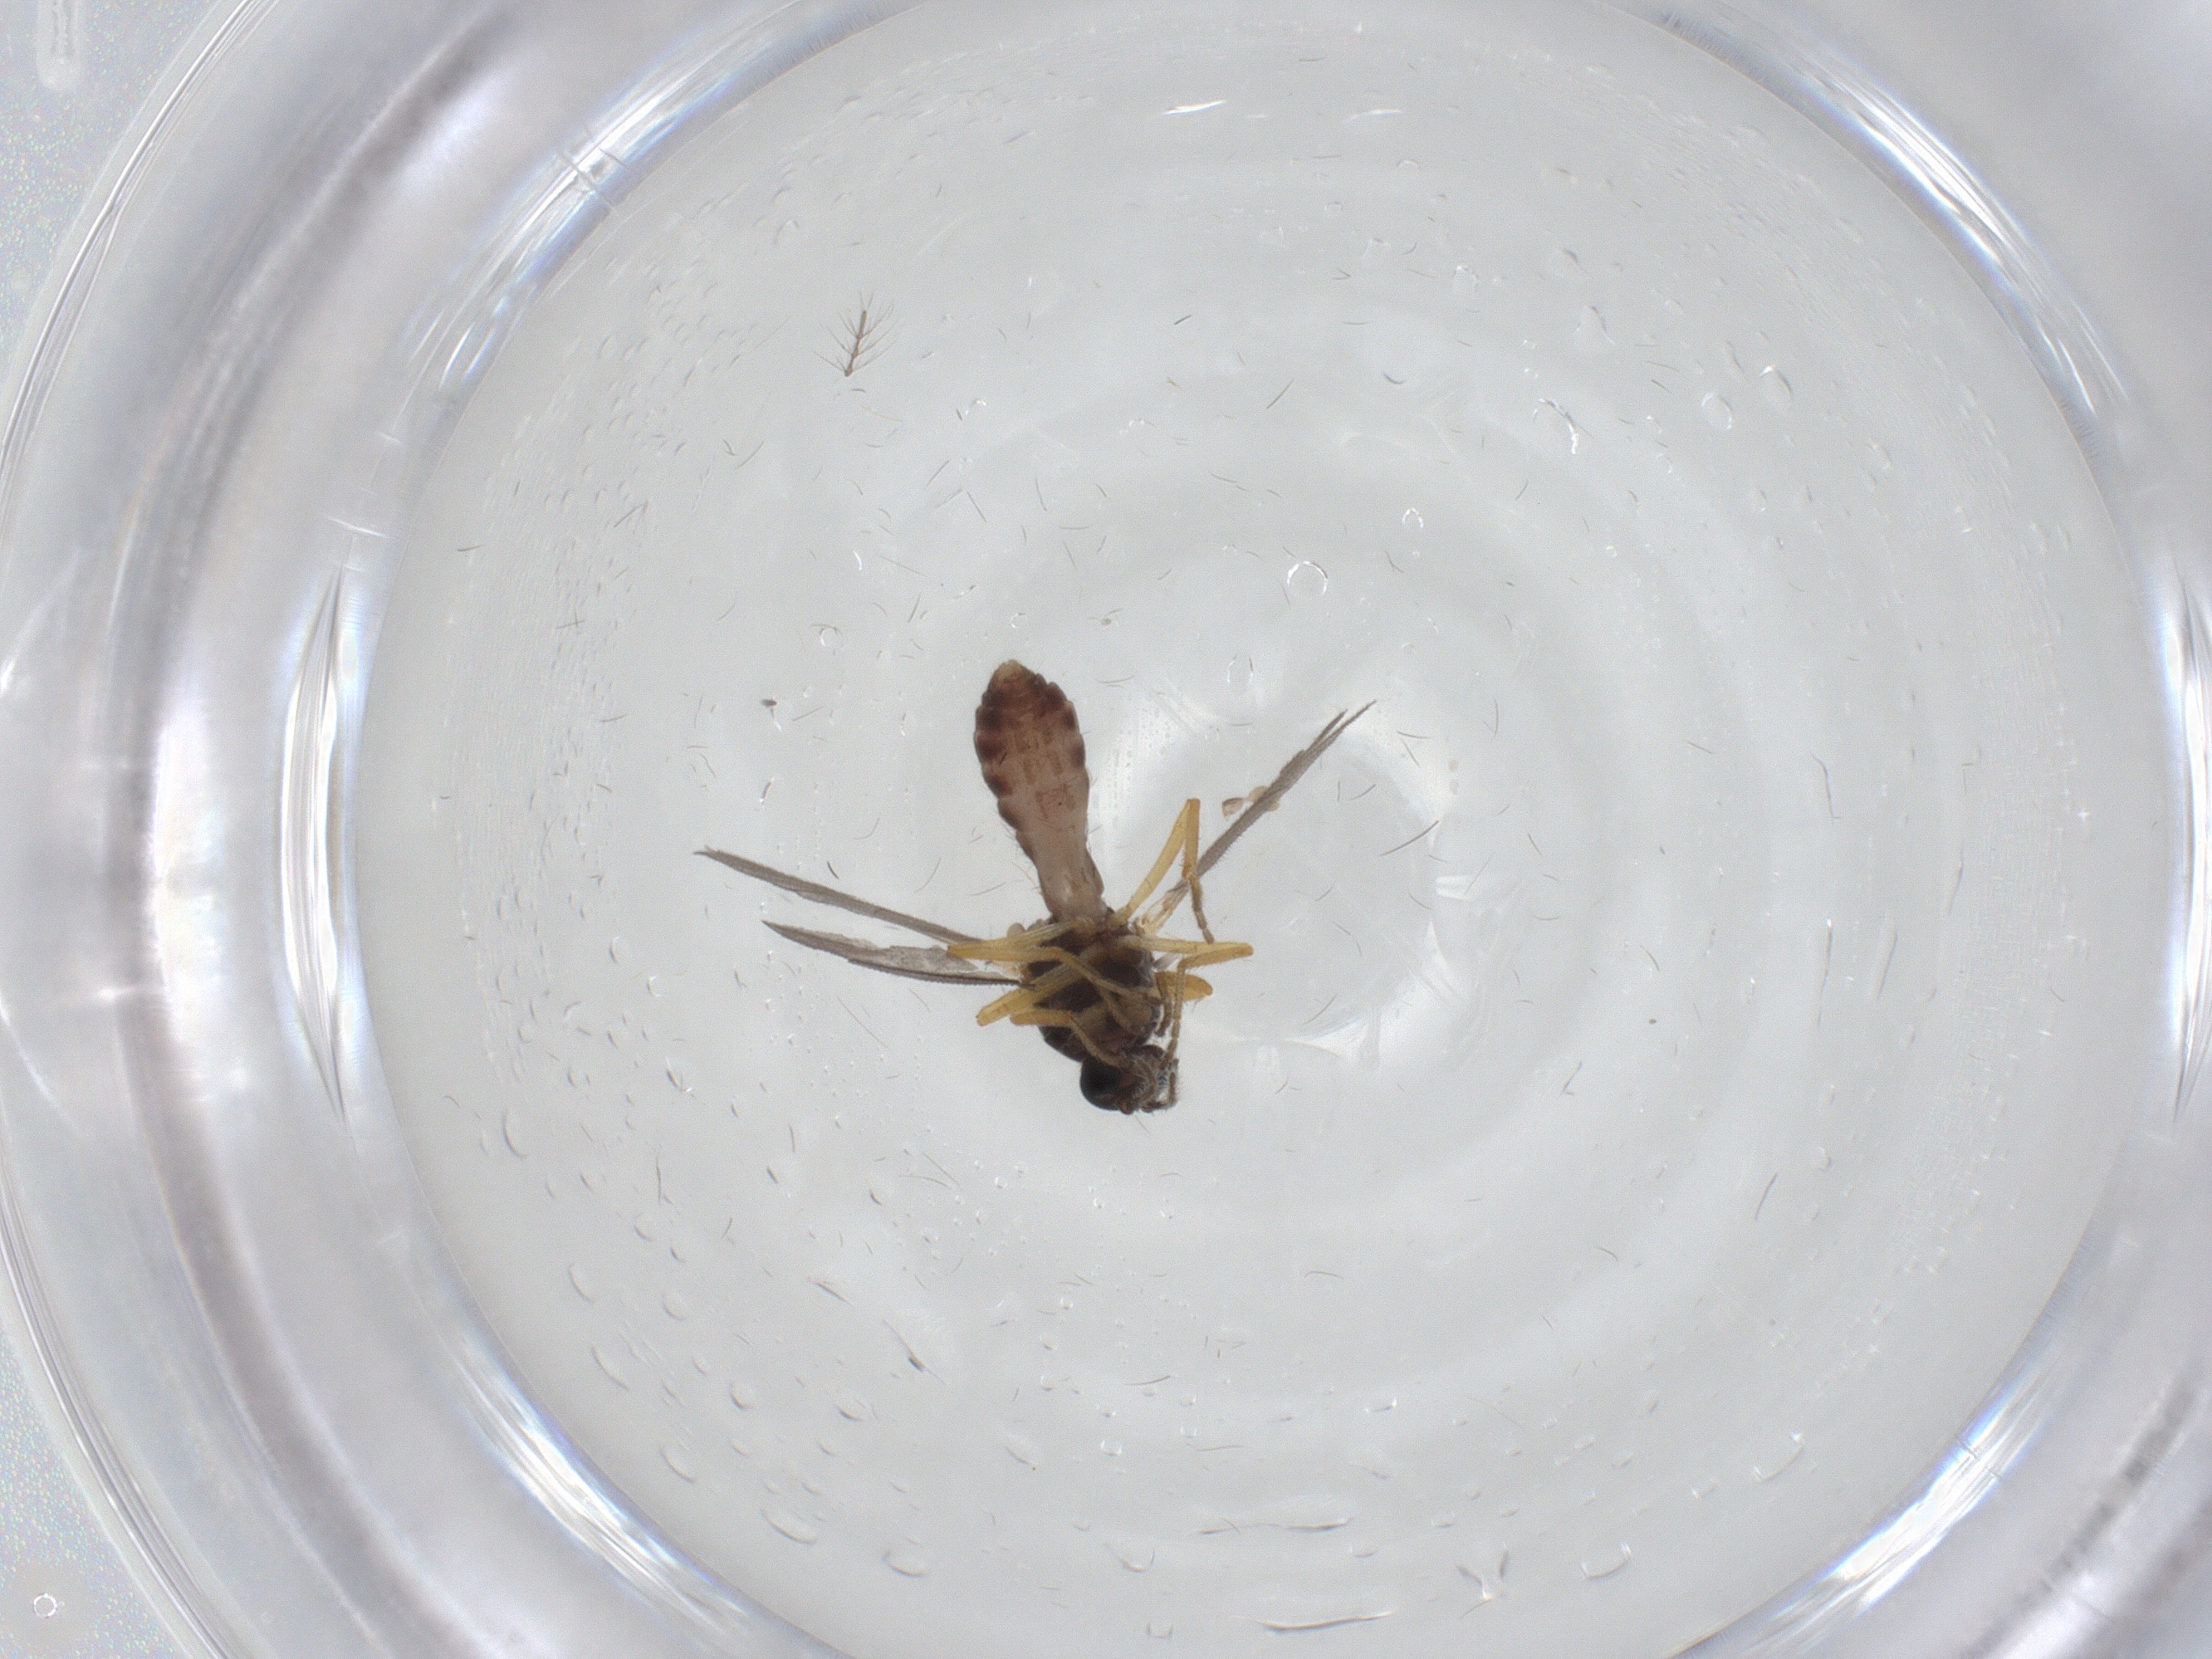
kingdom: Animalia
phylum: Arthropoda
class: Insecta
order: Diptera
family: Ceratopogonidae
